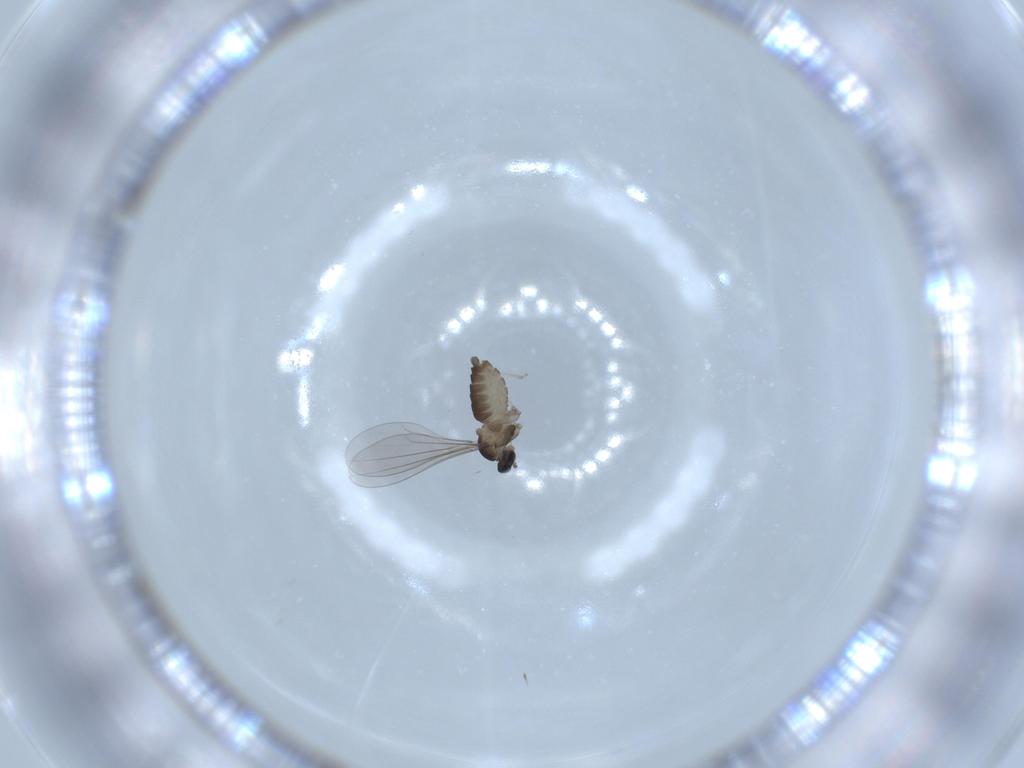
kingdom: Animalia
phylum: Arthropoda
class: Insecta
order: Diptera
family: Cecidomyiidae
